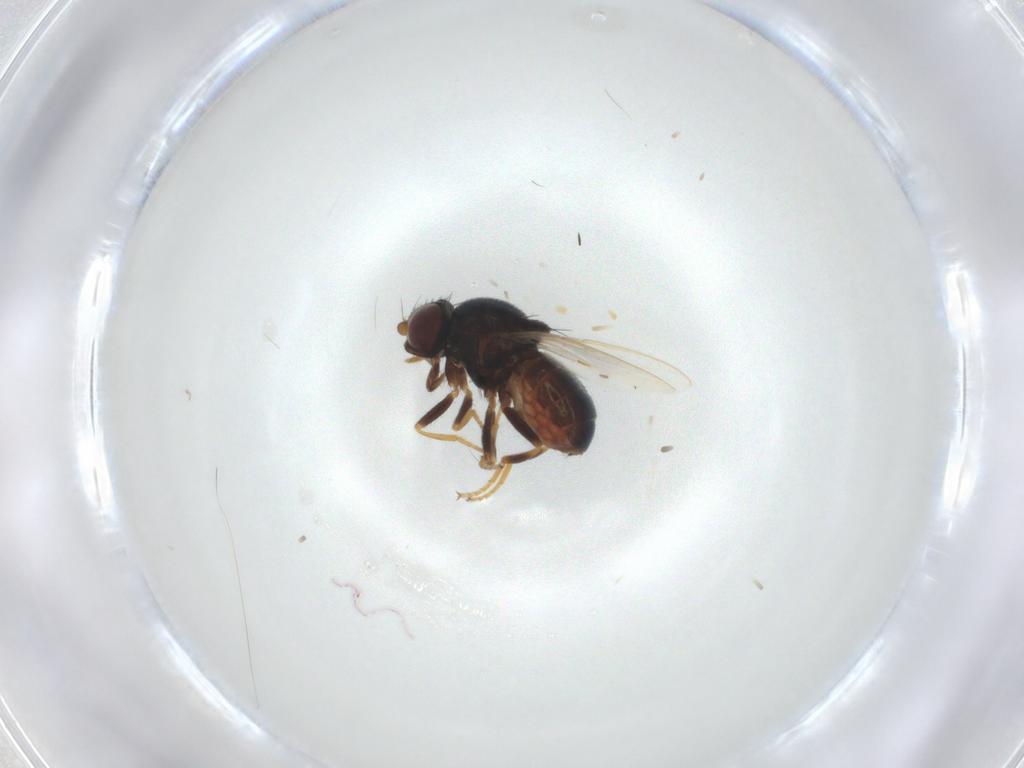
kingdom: Animalia
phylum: Arthropoda
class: Insecta
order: Diptera
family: Chloropidae
